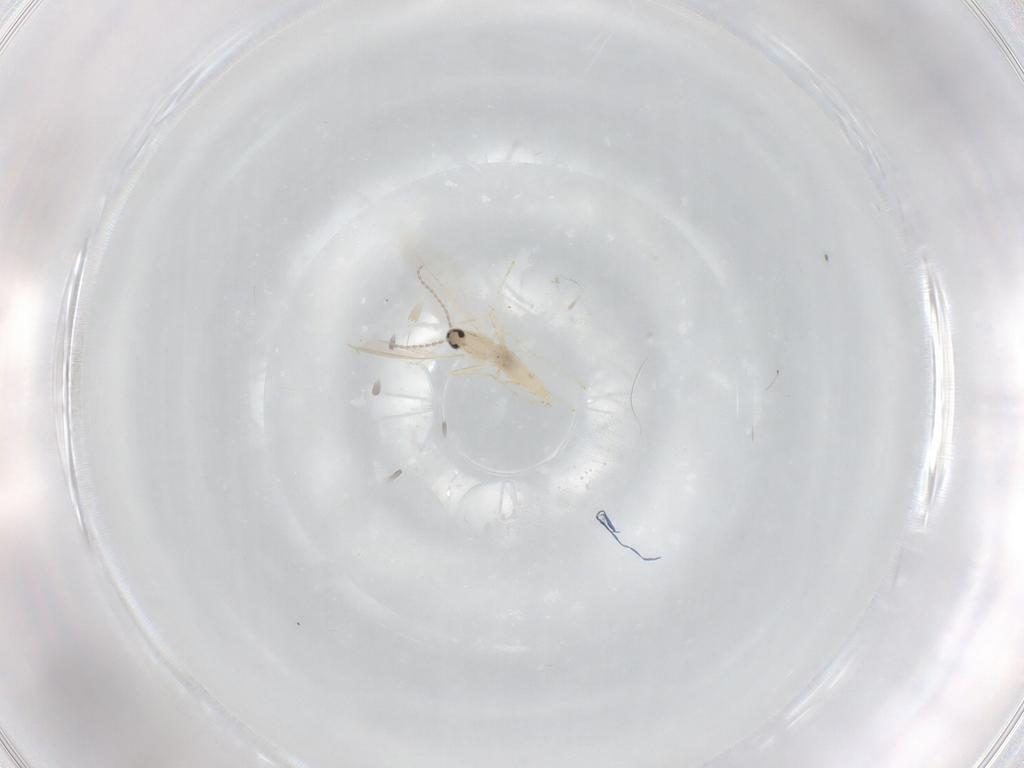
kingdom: Animalia
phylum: Arthropoda
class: Insecta
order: Diptera
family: Cecidomyiidae
